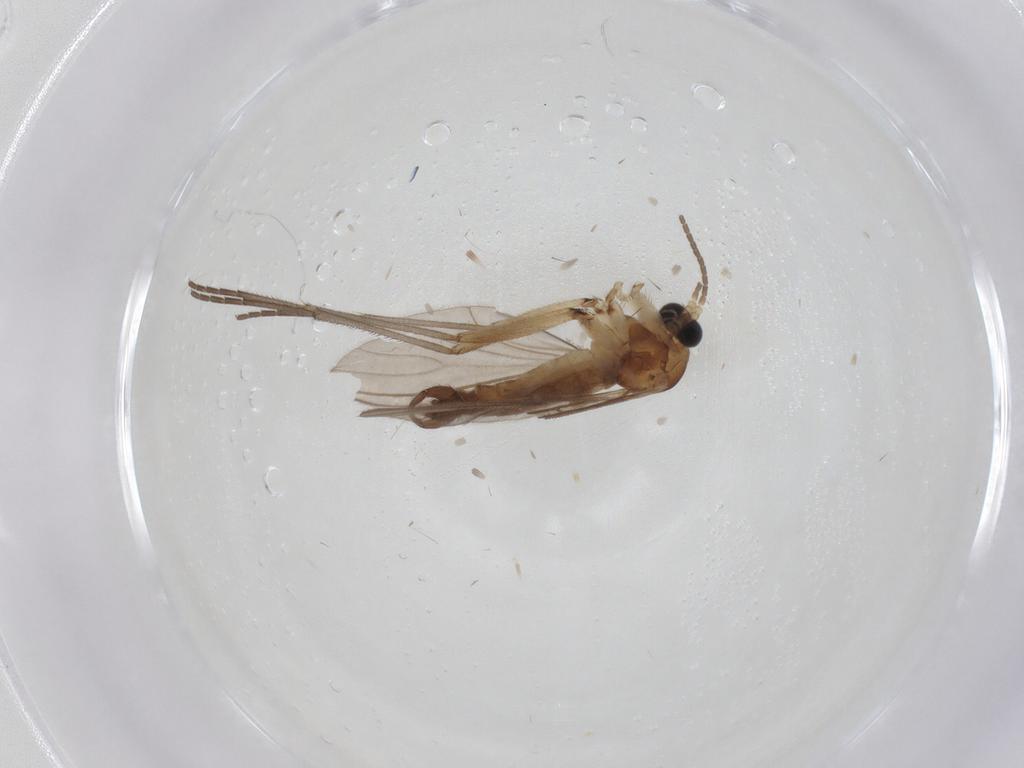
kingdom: Animalia
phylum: Arthropoda
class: Insecta
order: Diptera
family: Sciaridae
